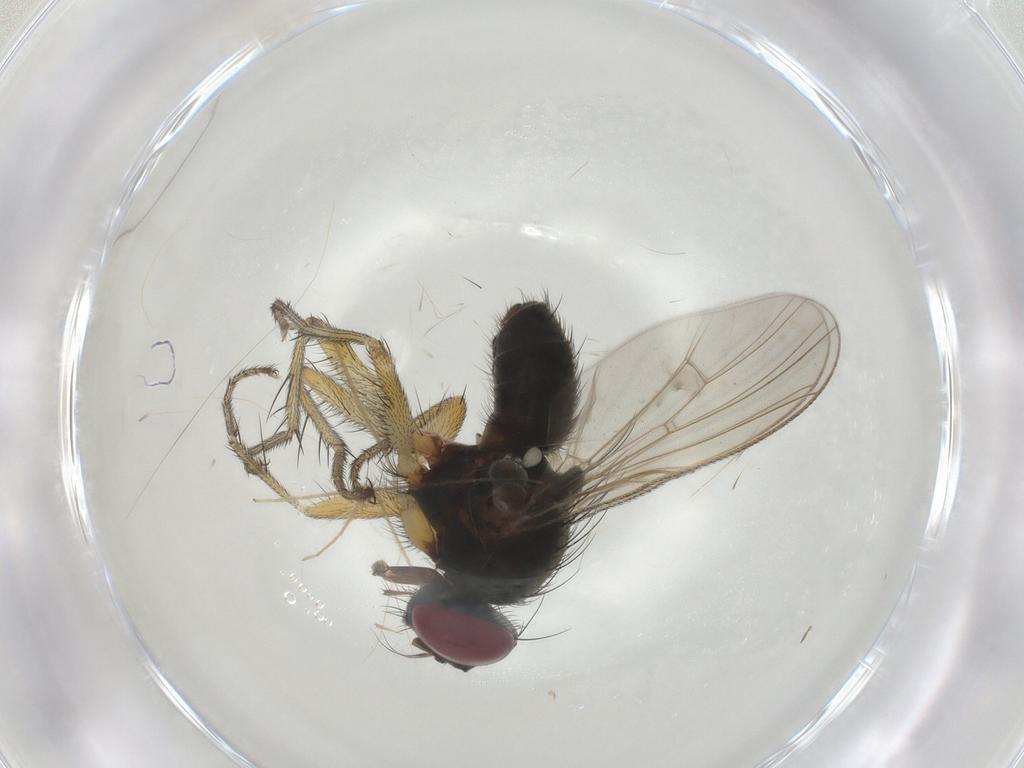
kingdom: Animalia
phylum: Arthropoda
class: Insecta
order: Diptera
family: Muscidae
